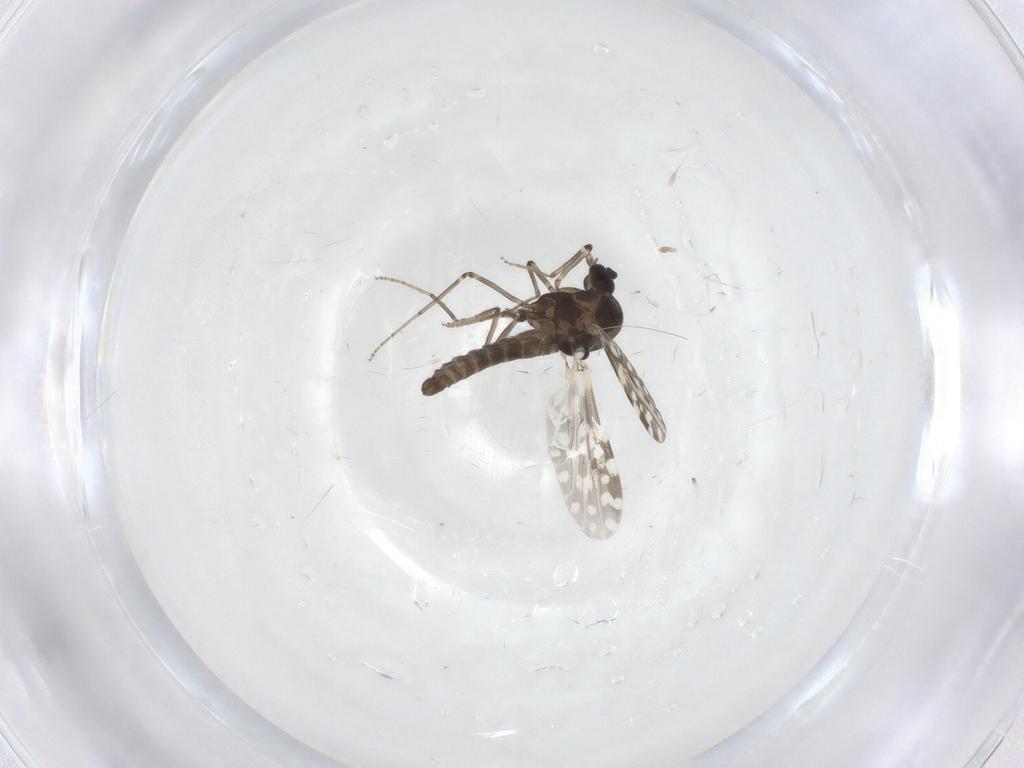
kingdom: Animalia
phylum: Arthropoda
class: Insecta
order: Diptera
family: Ceratopogonidae
